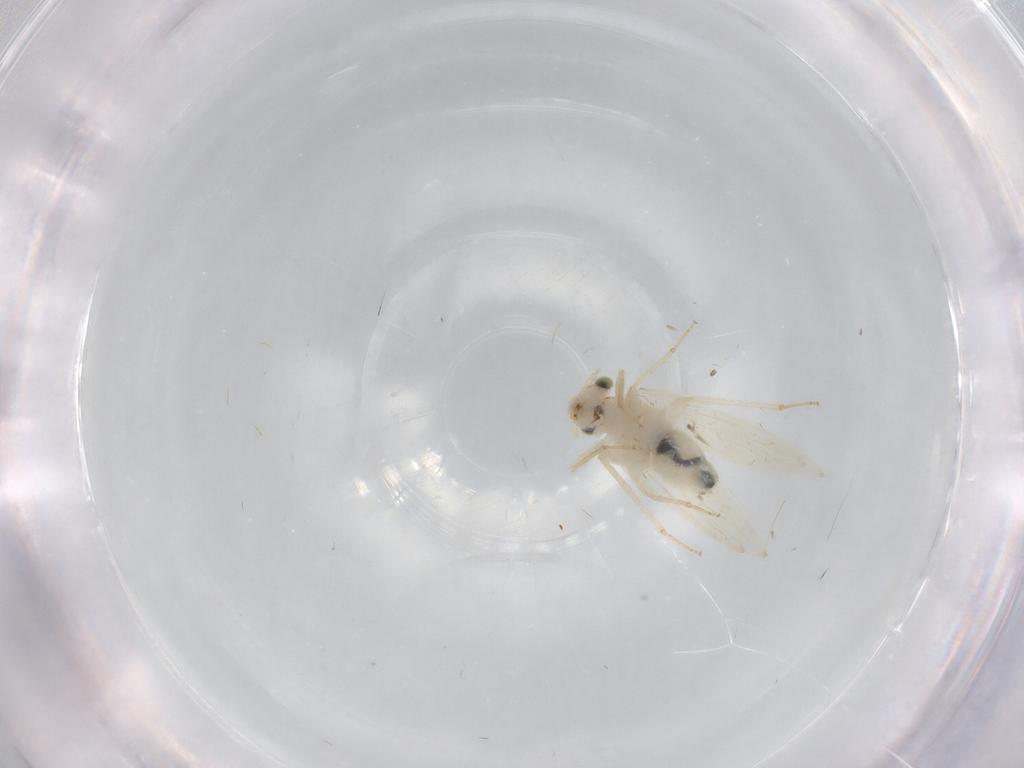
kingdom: Animalia
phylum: Arthropoda
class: Insecta
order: Psocodea
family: Lepidopsocidae
